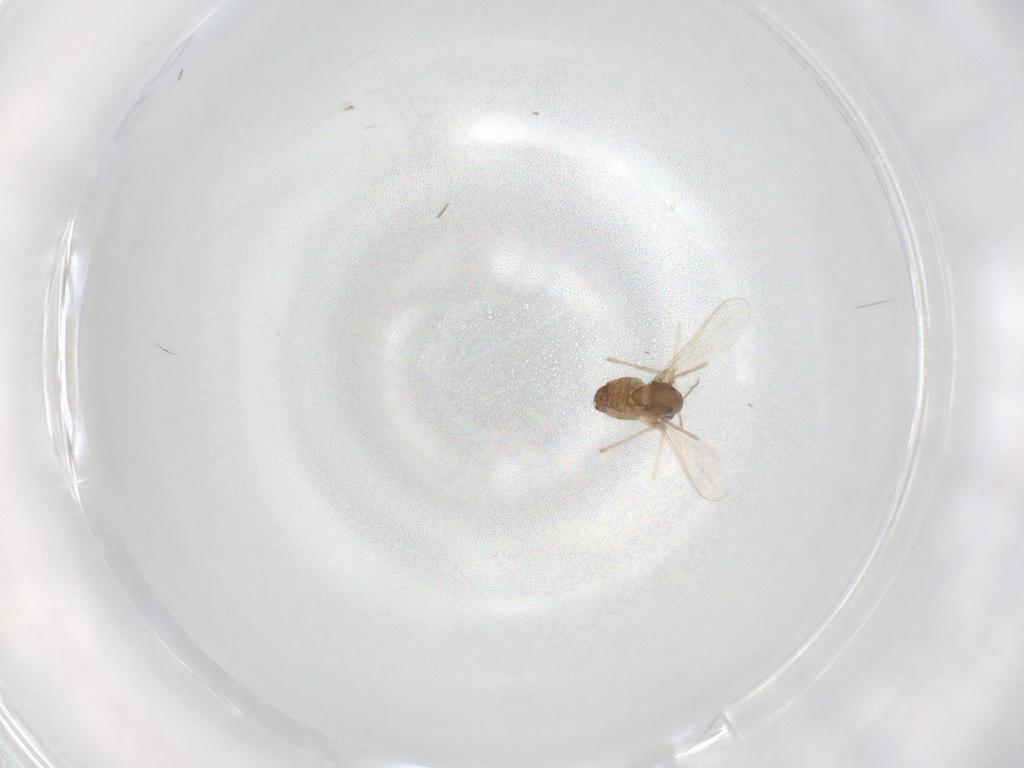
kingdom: Animalia
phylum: Arthropoda
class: Insecta
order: Diptera
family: Chironomidae
